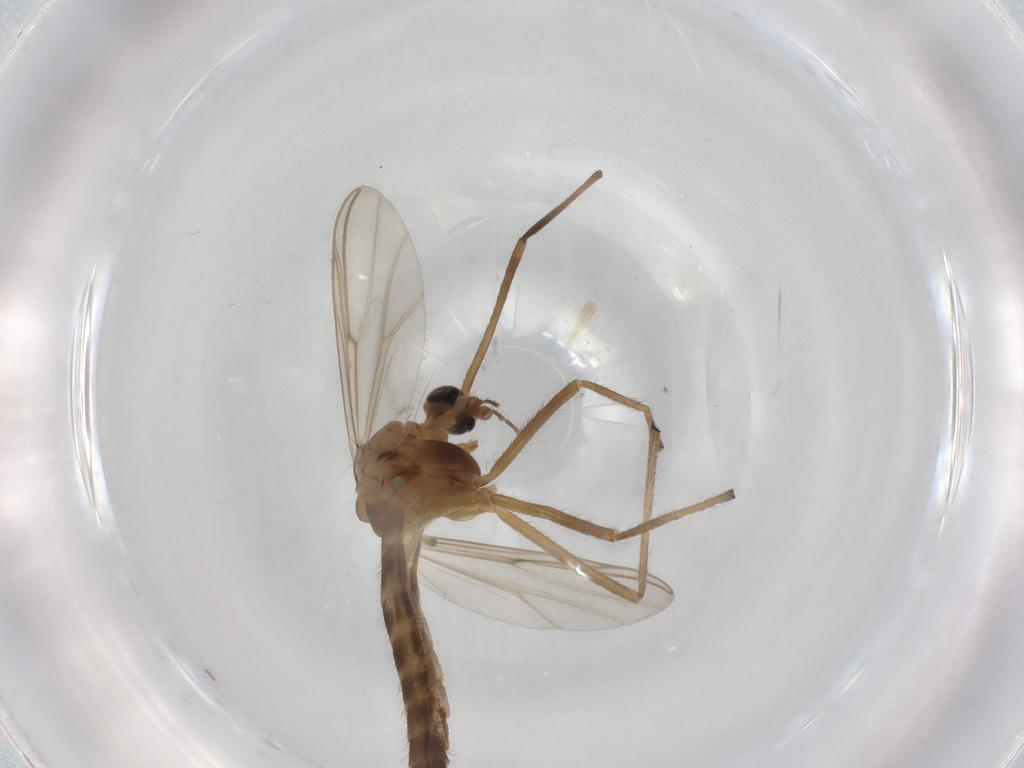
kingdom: Animalia
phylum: Arthropoda
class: Insecta
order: Diptera
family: Chironomidae
